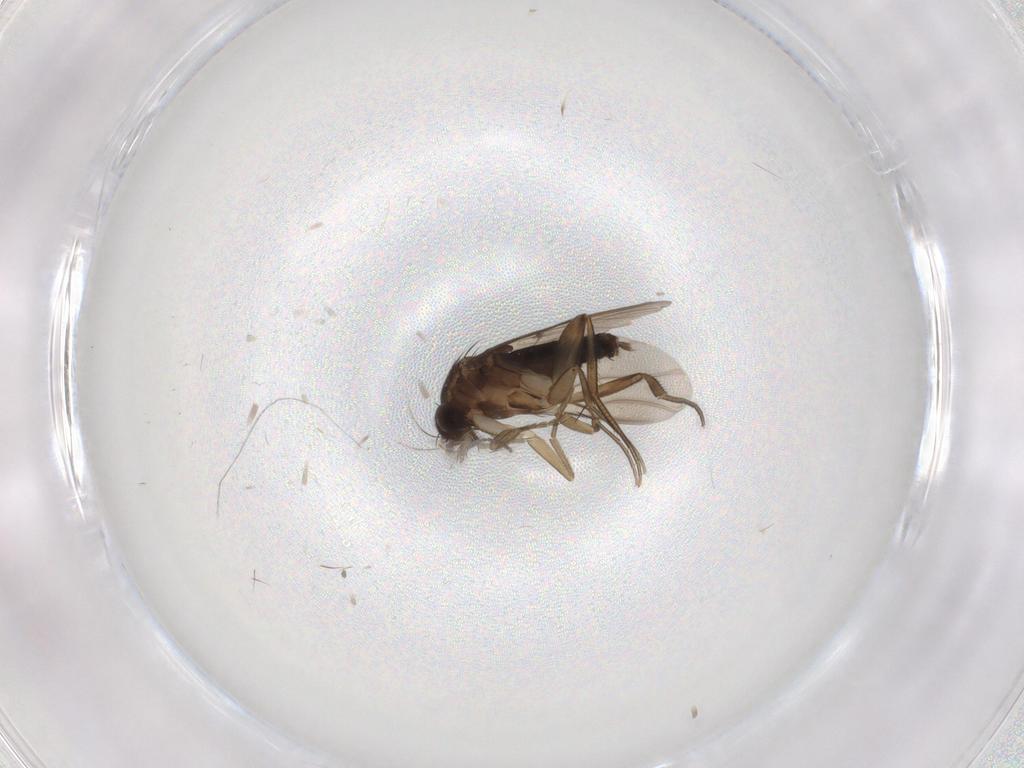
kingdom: Animalia
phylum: Arthropoda
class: Insecta
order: Diptera
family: Cecidomyiidae
